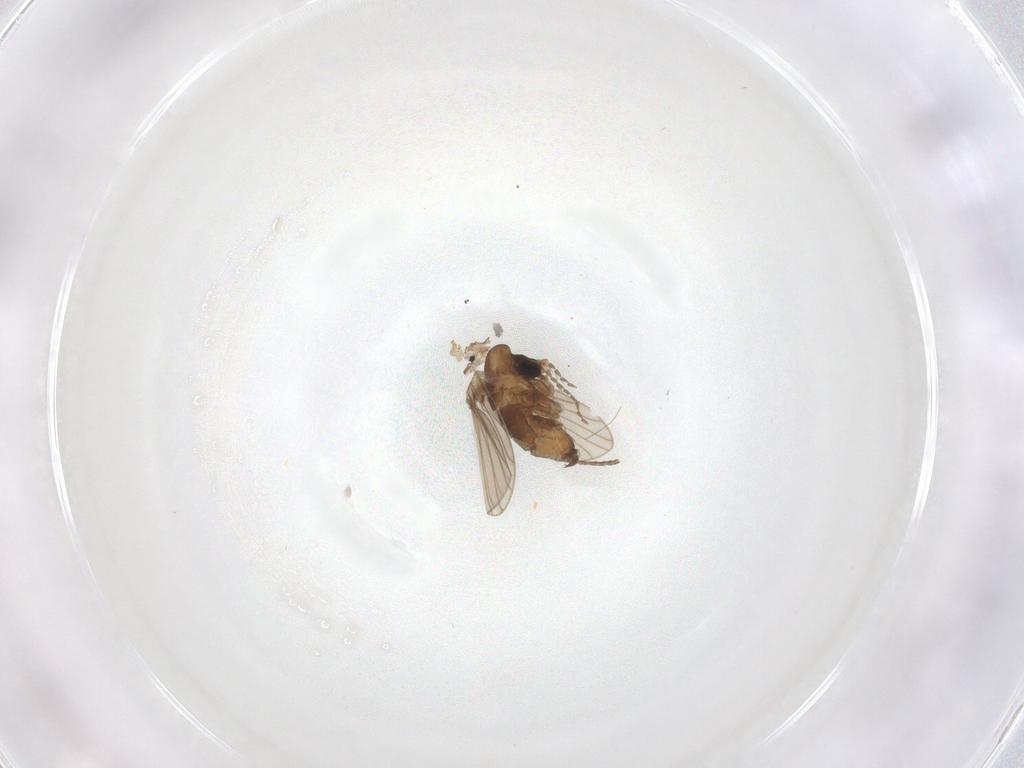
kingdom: Animalia
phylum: Arthropoda
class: Insecta
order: Diptera
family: Psychodidae
